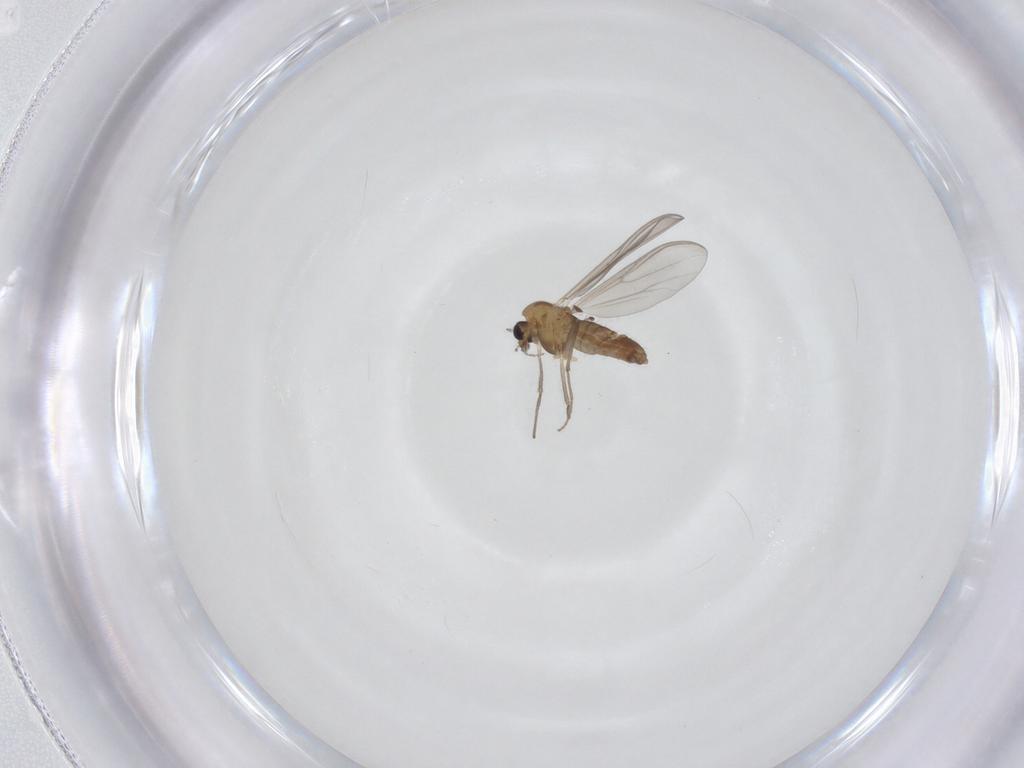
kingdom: Animalia
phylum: Arthropoda
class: Insecta
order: Diptera
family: Chironomidae
